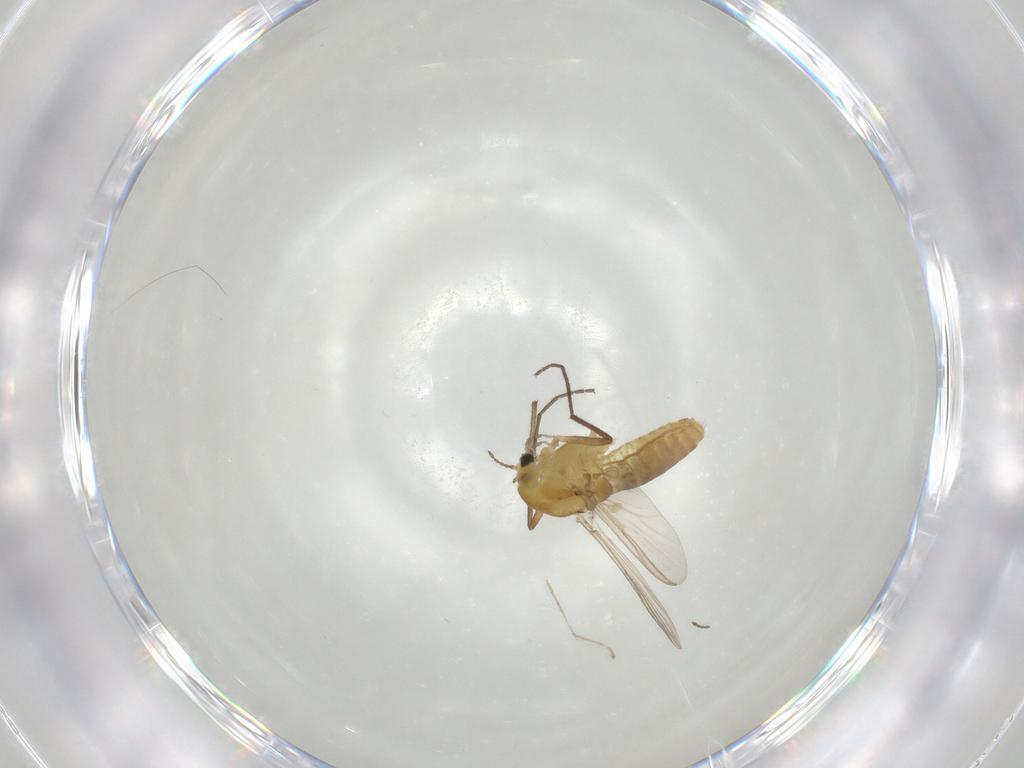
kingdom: Animalia
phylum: Arthropoda
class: Insecta
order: Diptera
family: Chironomidae
